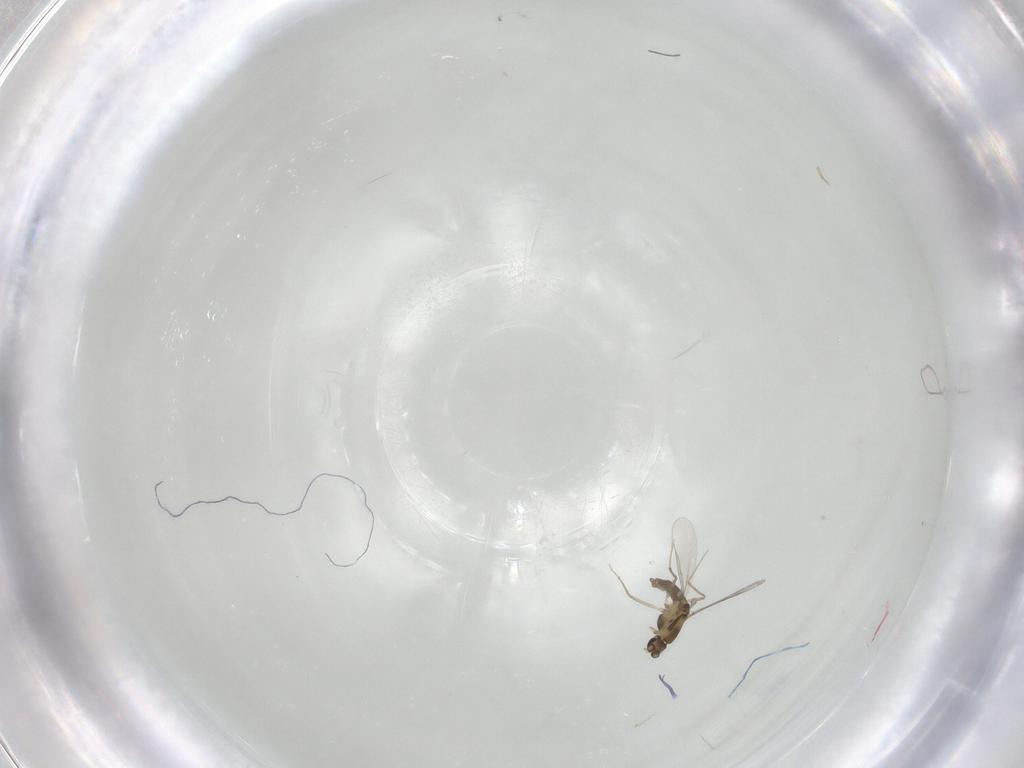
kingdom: Animalia
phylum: Arthropoda
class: Insecta
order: Diptera
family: Chironomidae
